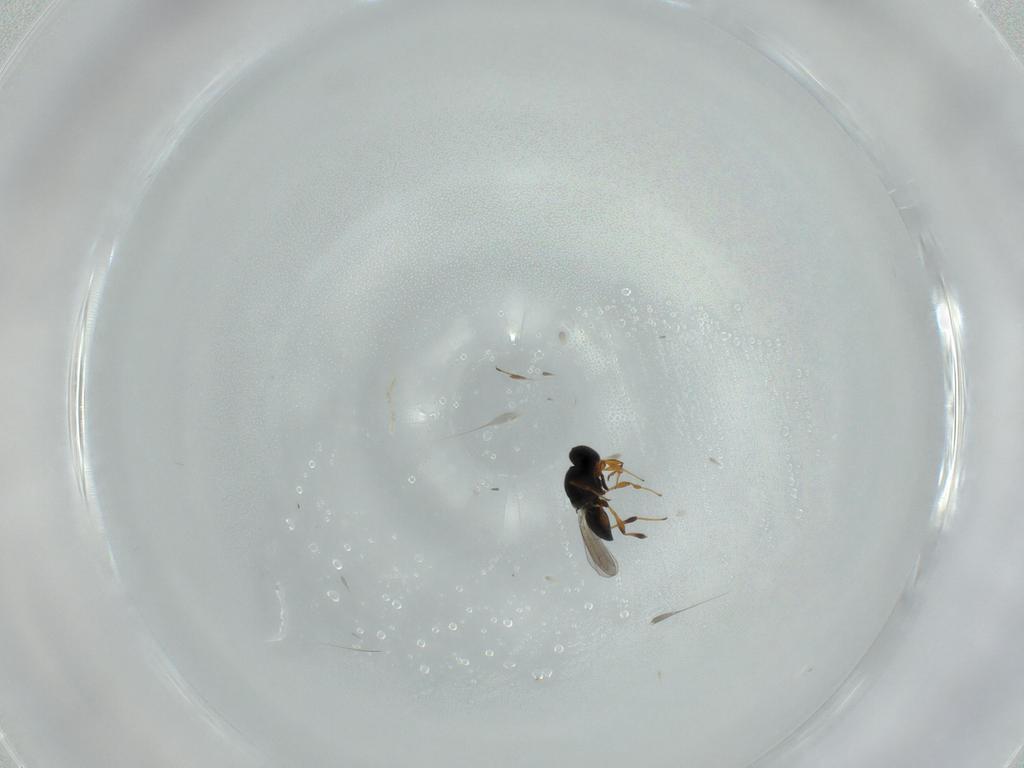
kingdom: Animalia
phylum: Arthropoda
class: Insecta
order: Hymenoptera
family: Platygastridae
